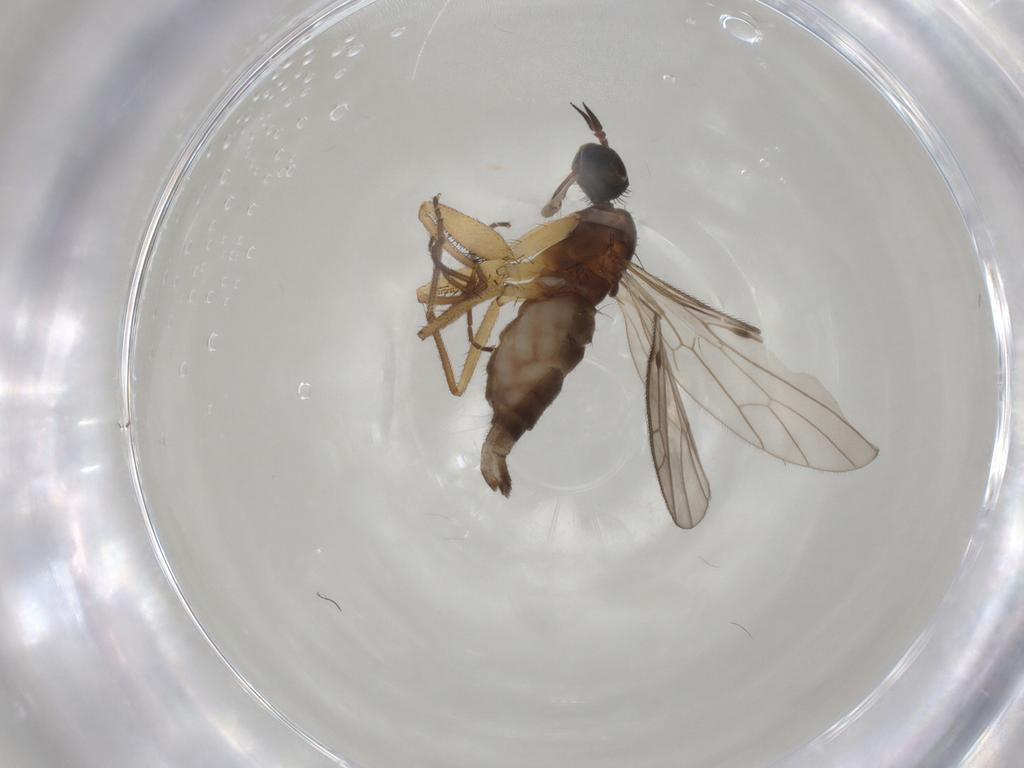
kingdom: Animalia
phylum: Arthropoda
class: Insecta
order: Diptera
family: Empididae
